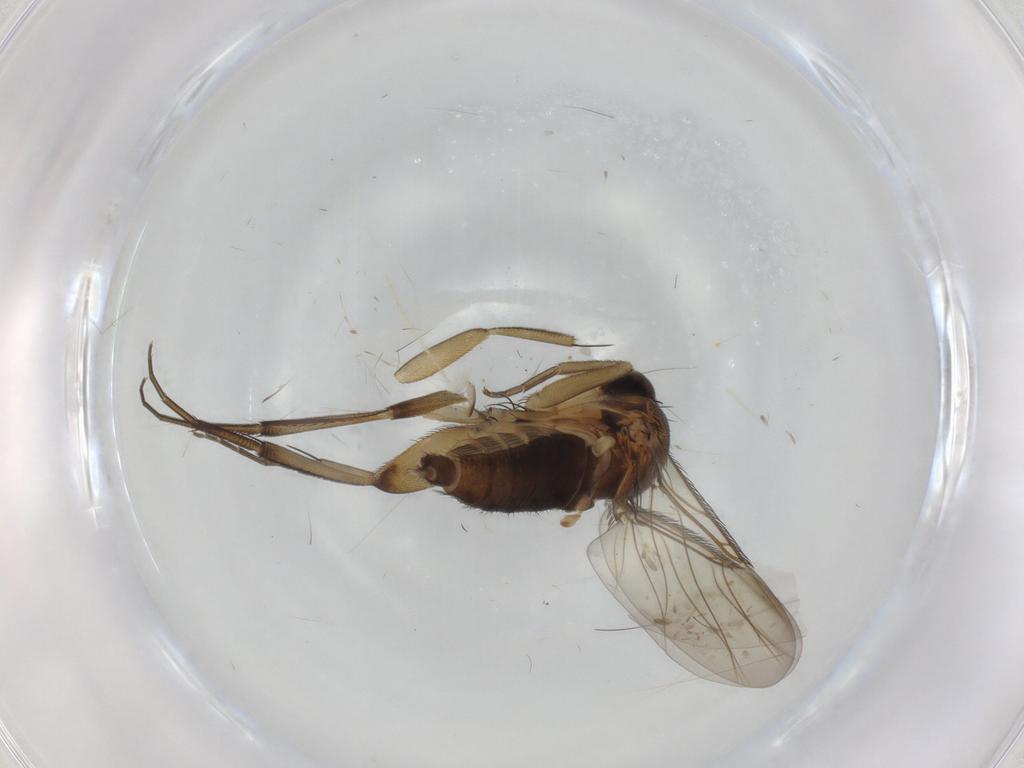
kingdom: Animalia
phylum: Arthropoda
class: Insecta
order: Diptera
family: Phoridae
